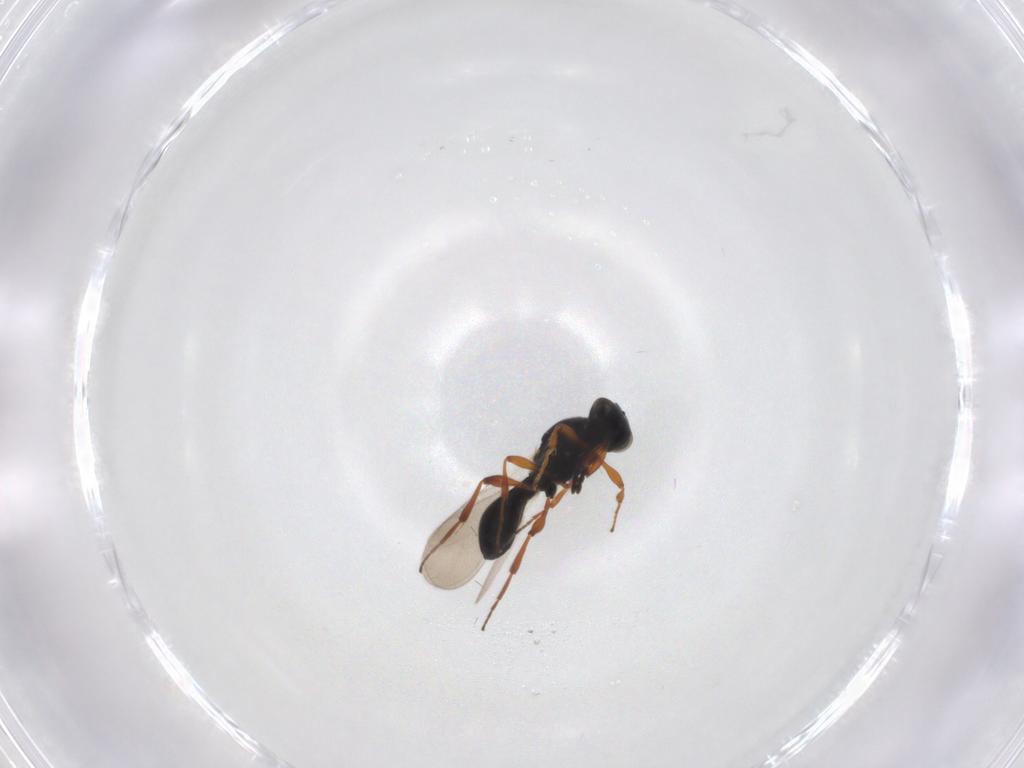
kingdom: Animalia
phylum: Arthropoda
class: Insecta
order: Hymenoptera
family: Platygastridae
